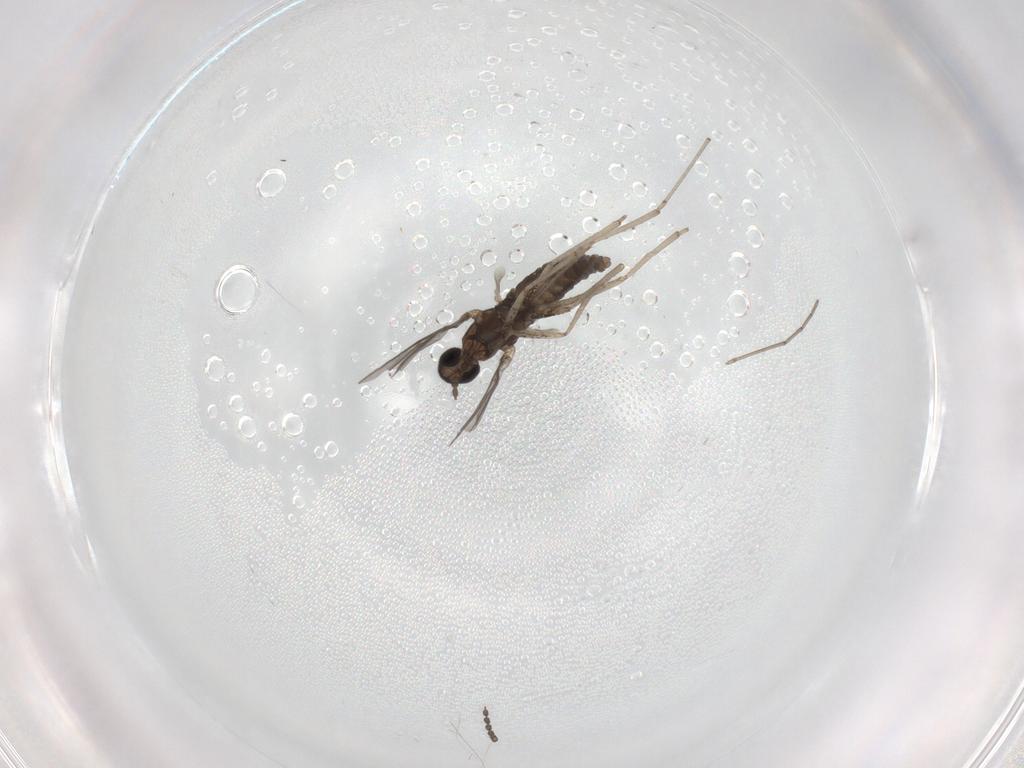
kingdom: Animalia
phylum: Arthropoda
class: Insecta
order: Diptera
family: Cecidomyiidae
